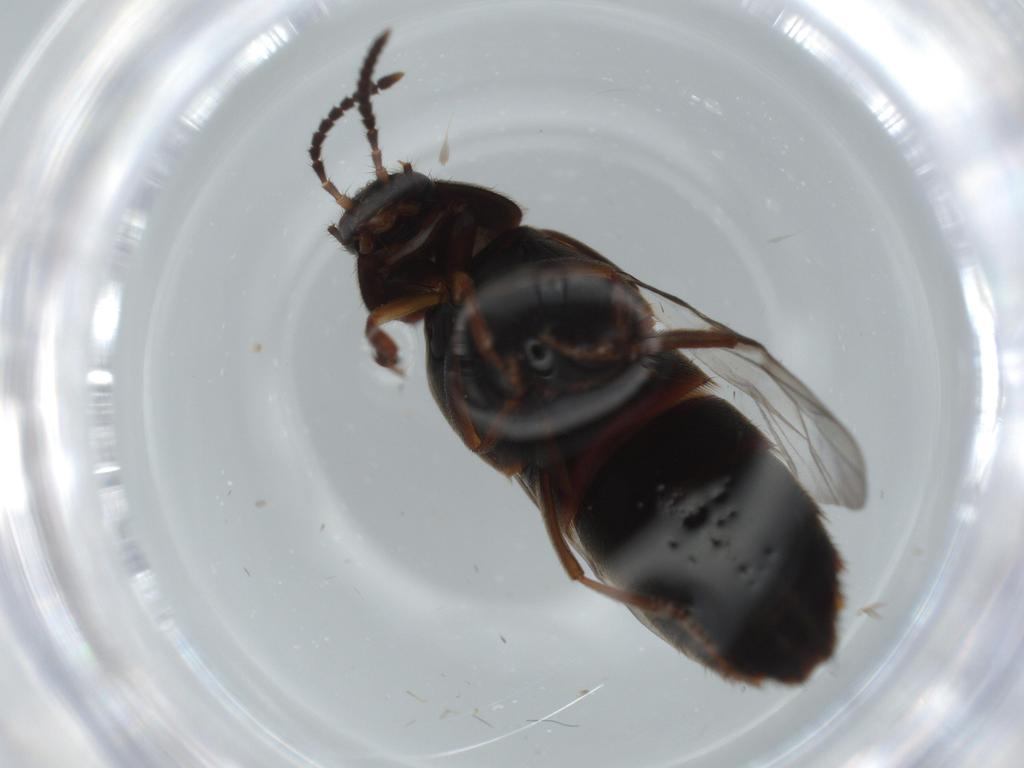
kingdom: Animalia
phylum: Arthropoda
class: Insecta
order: Coleoptera
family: Staphylinidae
